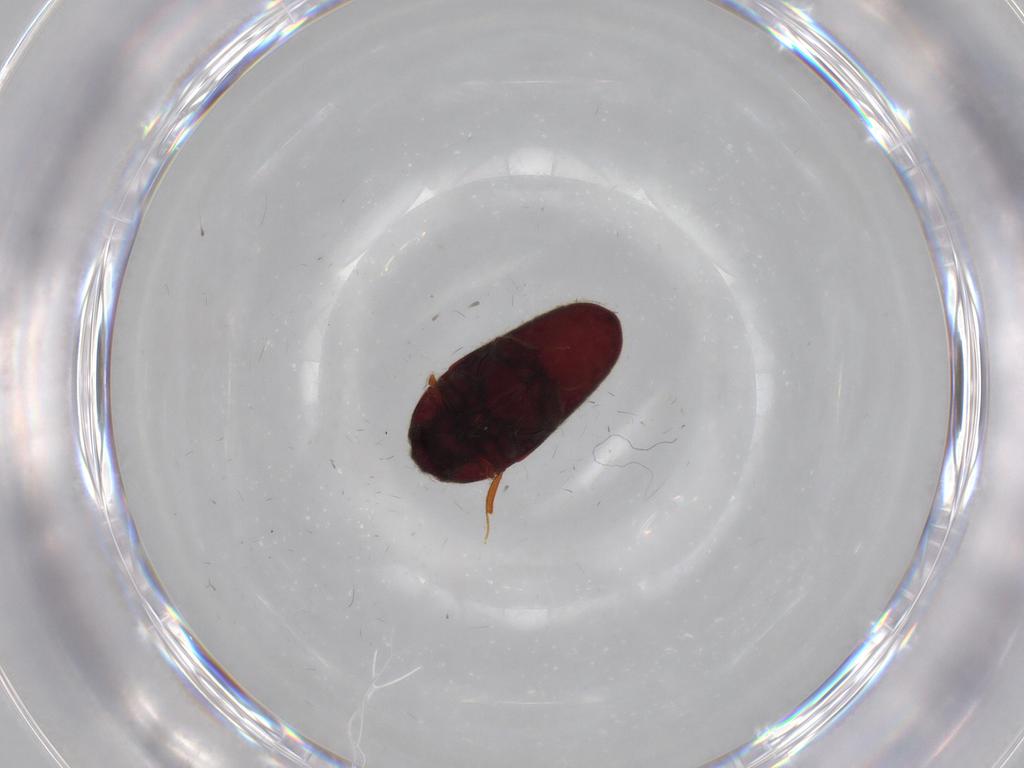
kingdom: Animalia
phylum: Arthropoda
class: Insecta
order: Coleoptera
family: Throscidae
